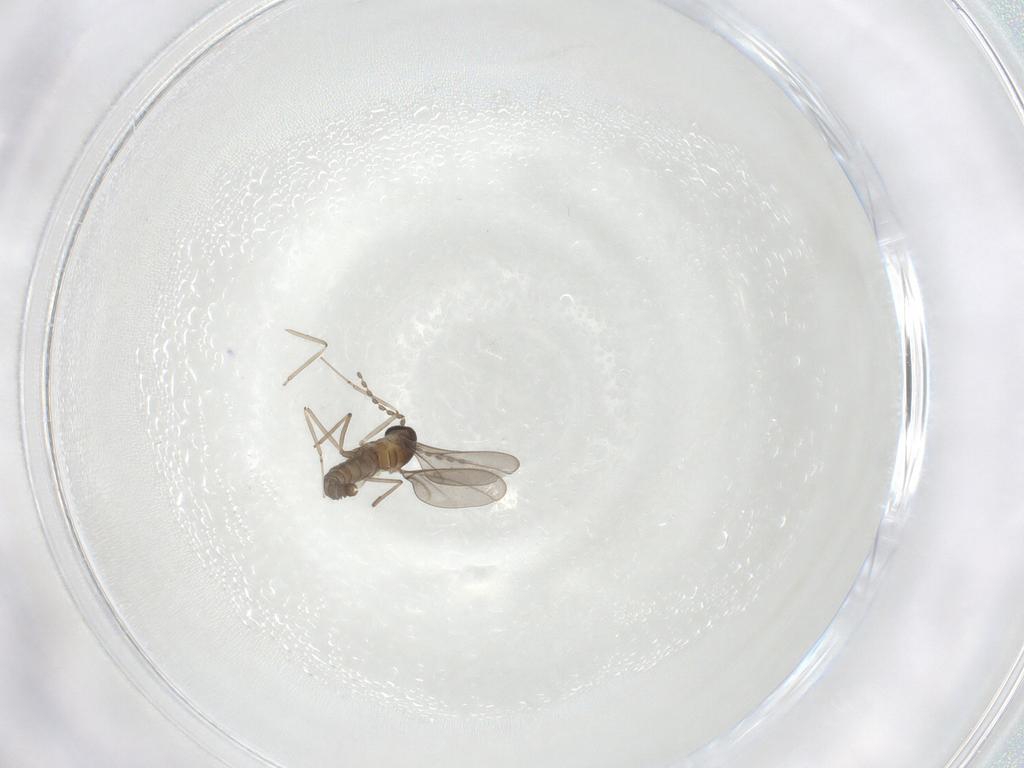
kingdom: Animalia
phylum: Arthropoda
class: Insecta
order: Diptera
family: Cecidomyiidae
